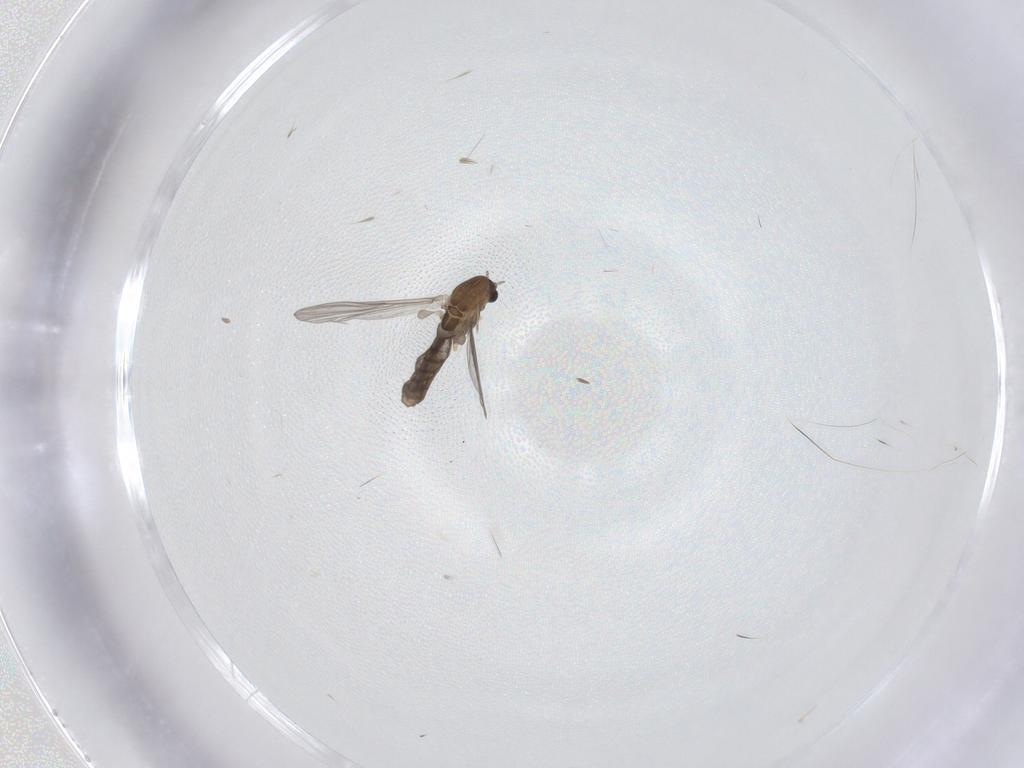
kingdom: Animalia
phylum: Arthropoda
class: Insecta
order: Diptera
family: Chironomidae
